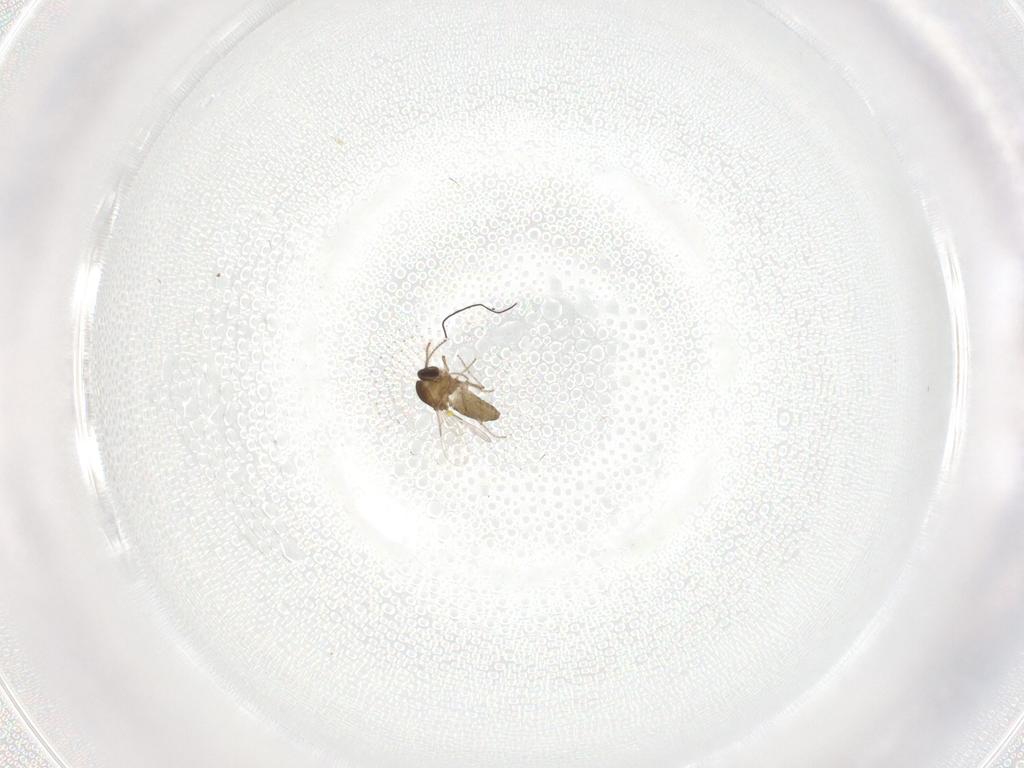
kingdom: Animalia
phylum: Arthropoda
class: Insecta
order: Diptera
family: Ceratopogonidae
